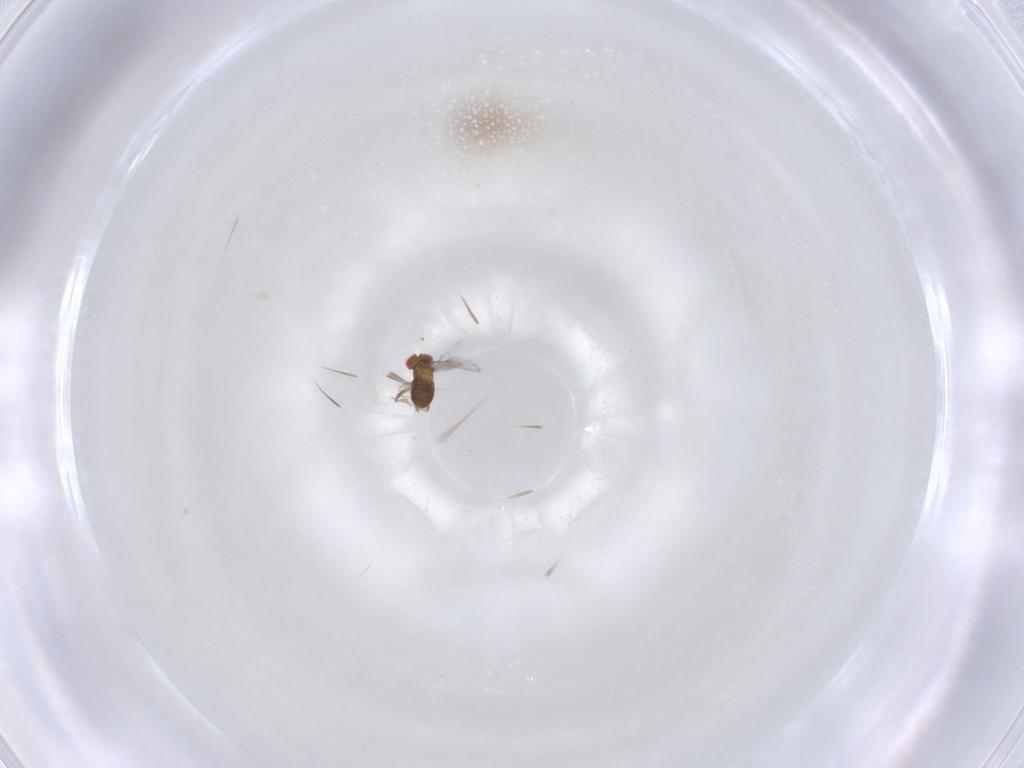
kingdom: Animalia
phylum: Arthropoda
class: Insecta
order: Hymenoptera
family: Trichogrammatidae
